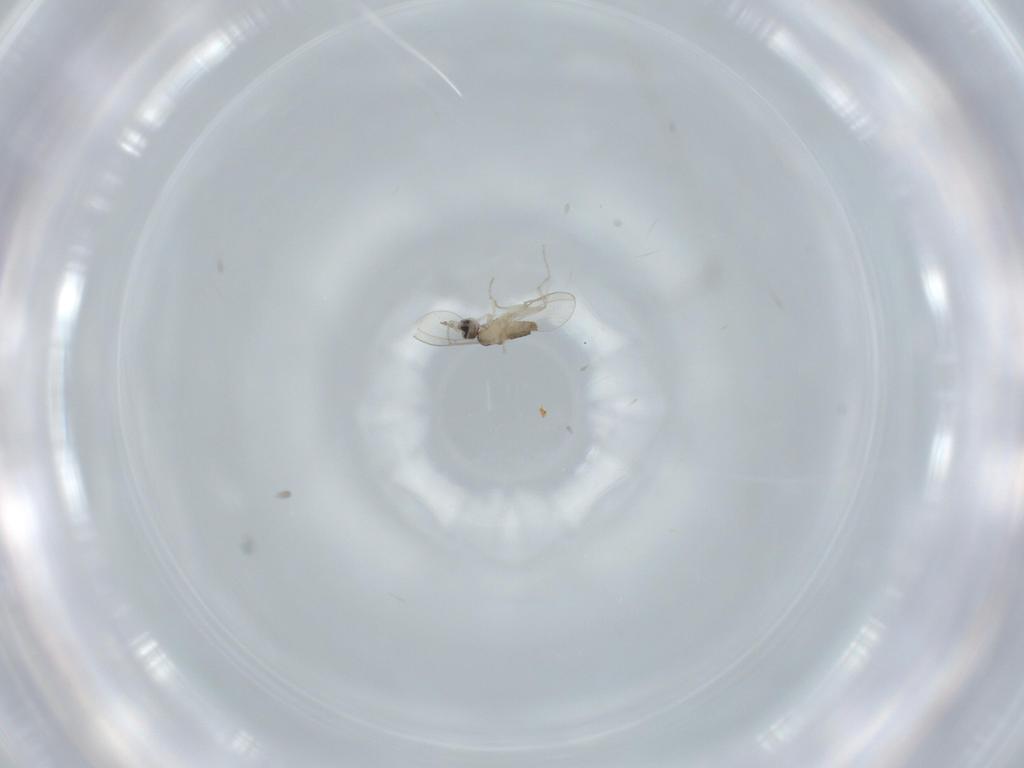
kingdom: Animalia
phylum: Arthropoda
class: Insecta
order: Diptera
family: Cecidomyiidae
